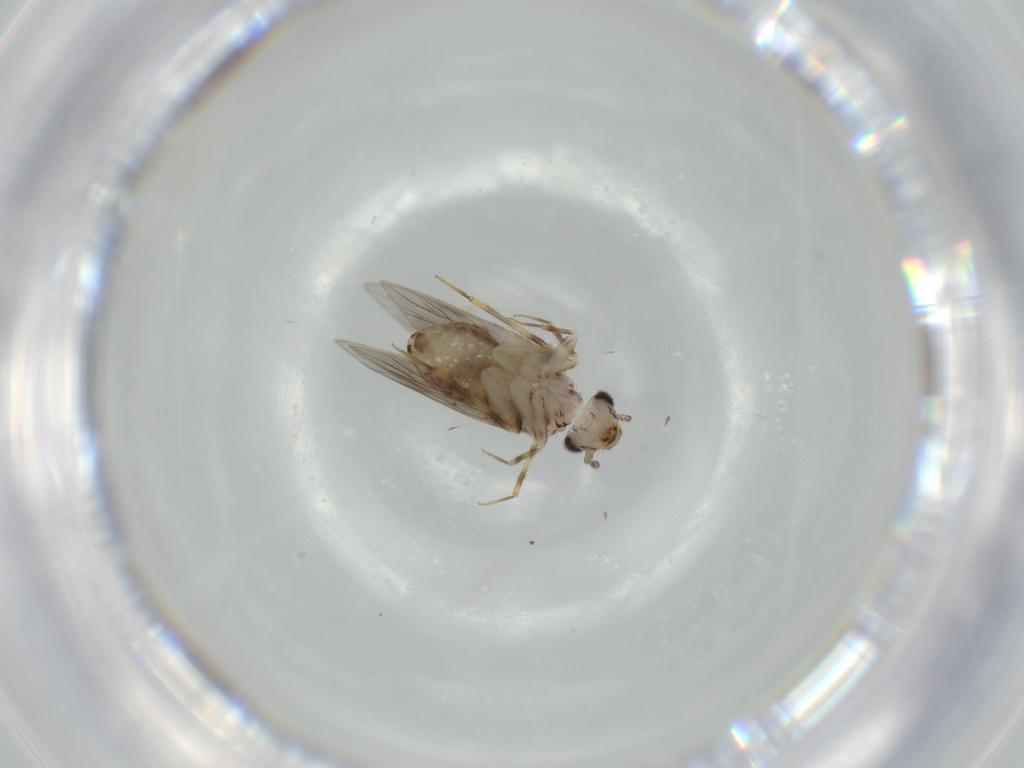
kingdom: Animalia
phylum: Arthropoda
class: Insecta
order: Psocodea
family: Lepidopsocidae
